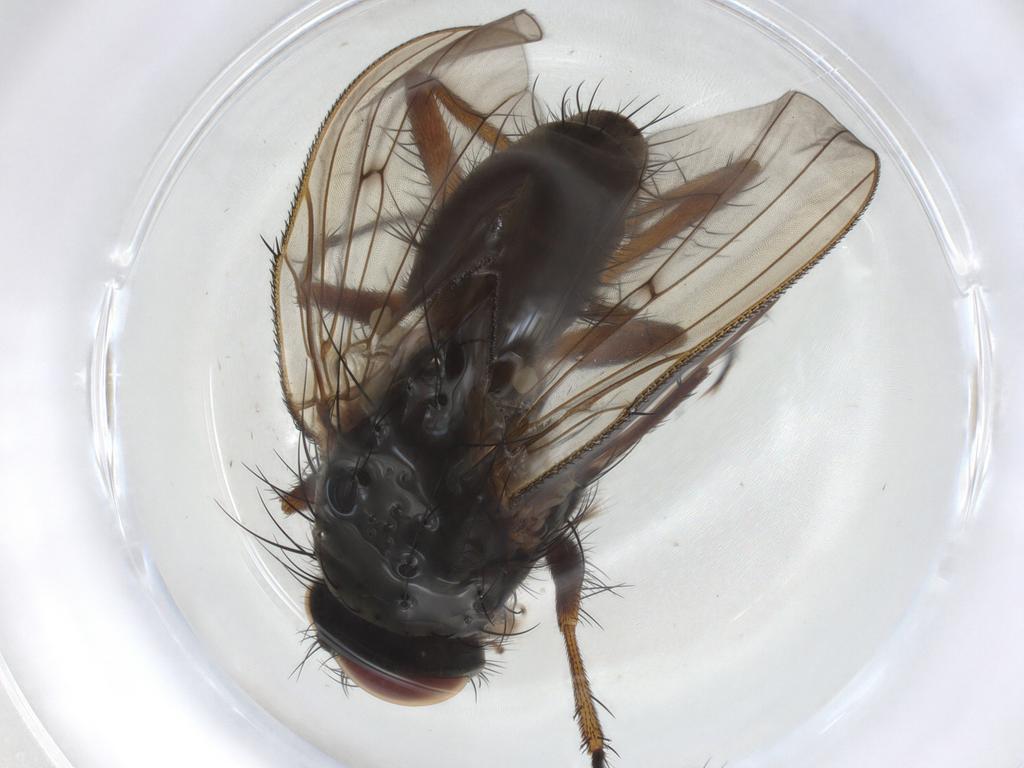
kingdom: Animalia
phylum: Arthropoda
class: Insecta
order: Diptera
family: Anthomyiidae
